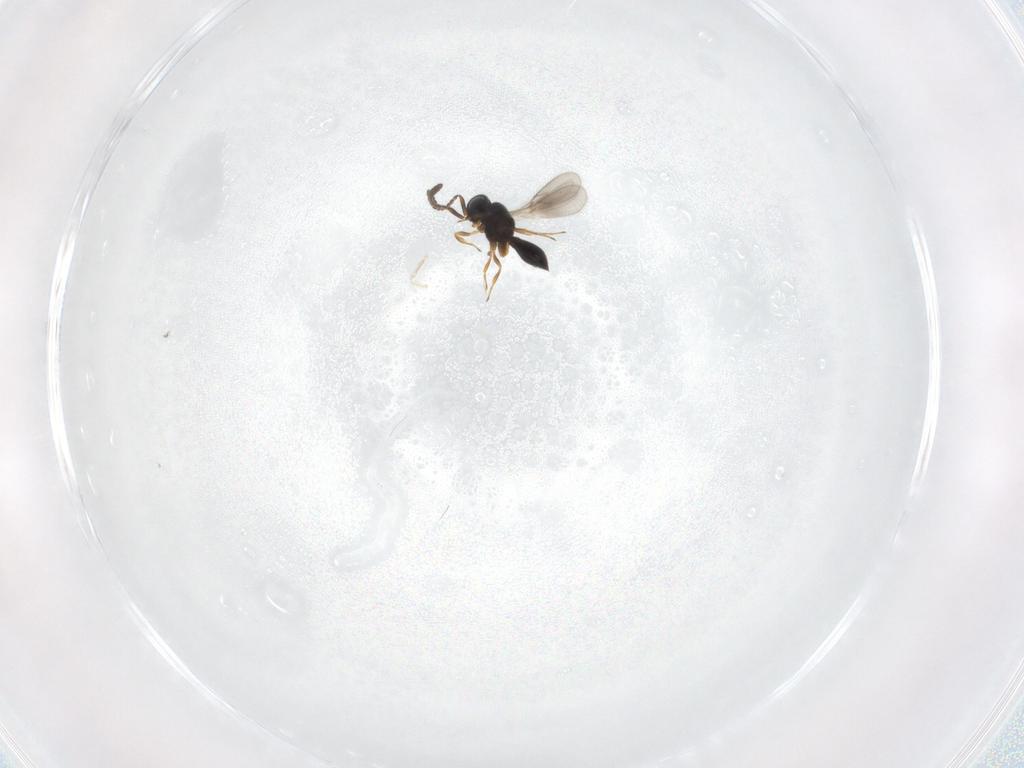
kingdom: Animalia
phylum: Arthropoda
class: Insecta
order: Hymenoptera
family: Scelionidae
